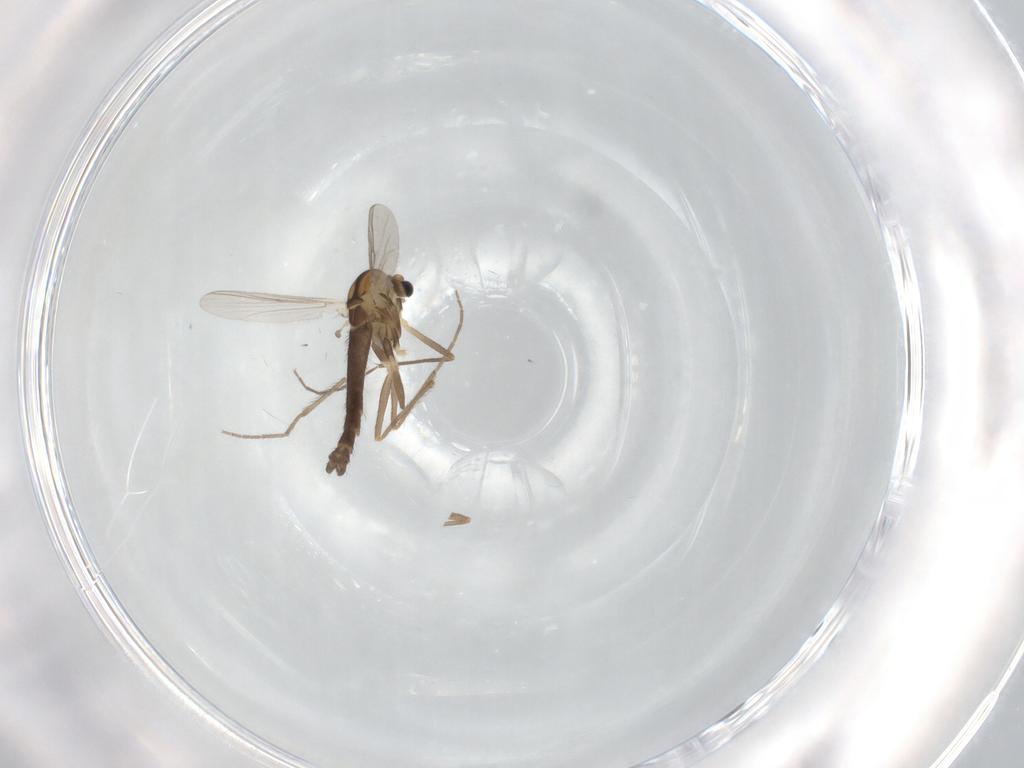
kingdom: Animalia
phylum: Arthropoda
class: Insecta
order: Diptera
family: Chironomidae
